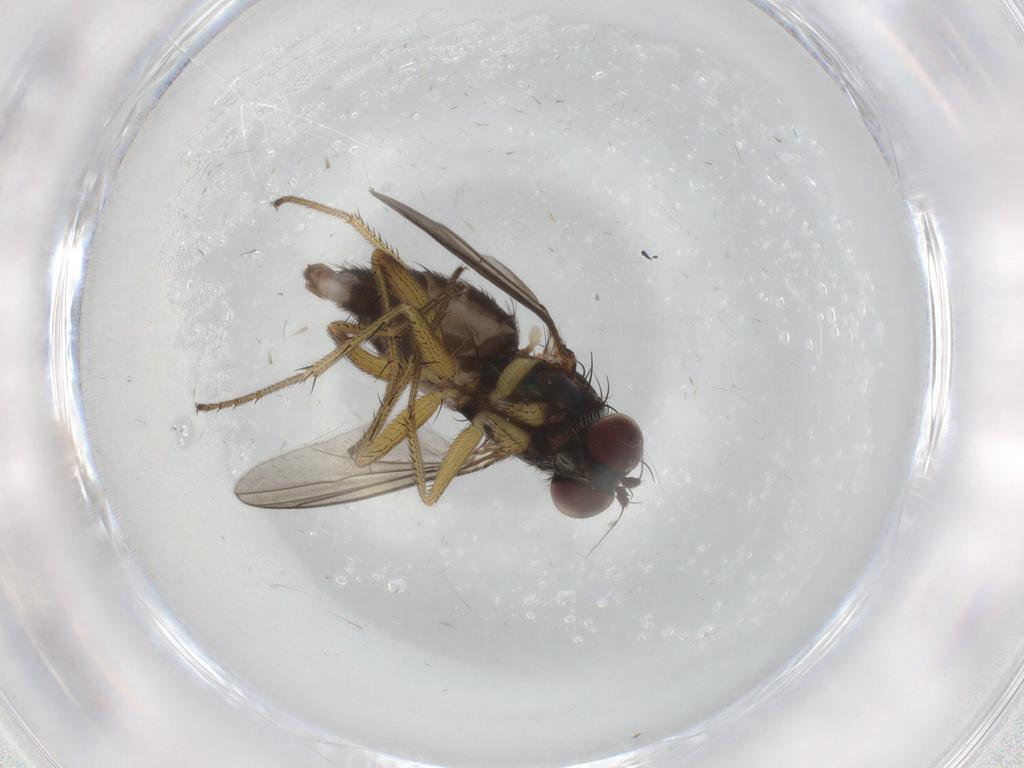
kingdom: Animalia
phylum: Arthropoda
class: Insecta
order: Diptera
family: Dolichopodidae
